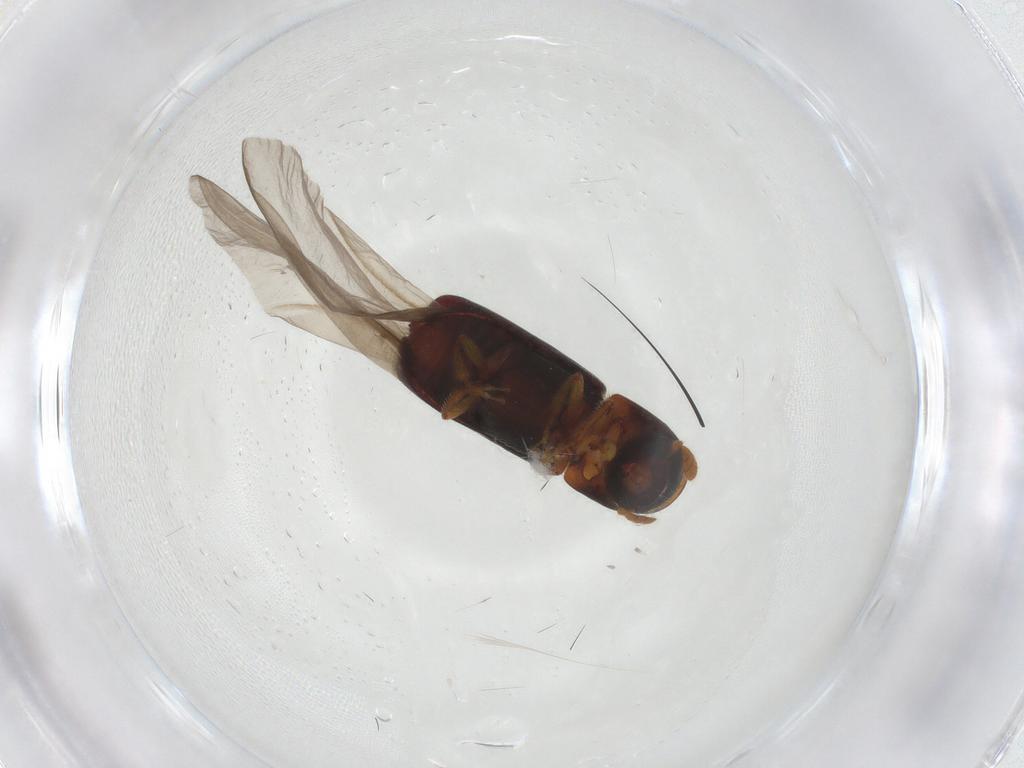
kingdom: Animalia
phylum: Arthropoda
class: Insecta
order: Coleoptera
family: Curculionidae
